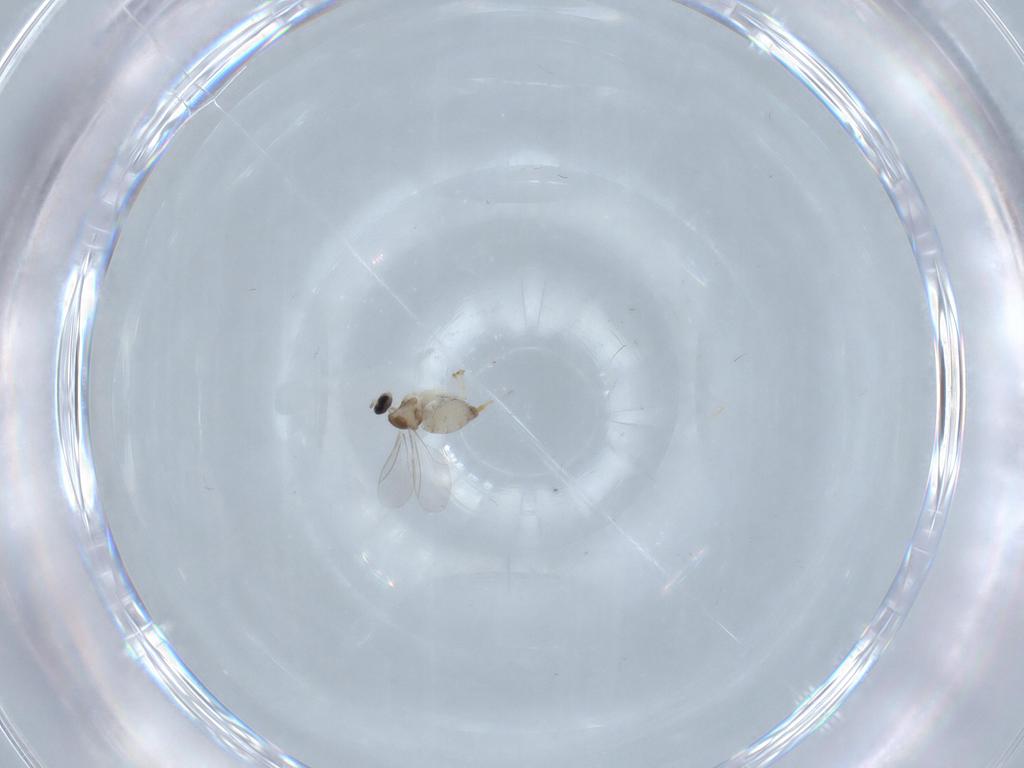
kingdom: Animalia
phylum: Arthropoda
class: Insecta
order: Diptera
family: Cecidomyiidae
